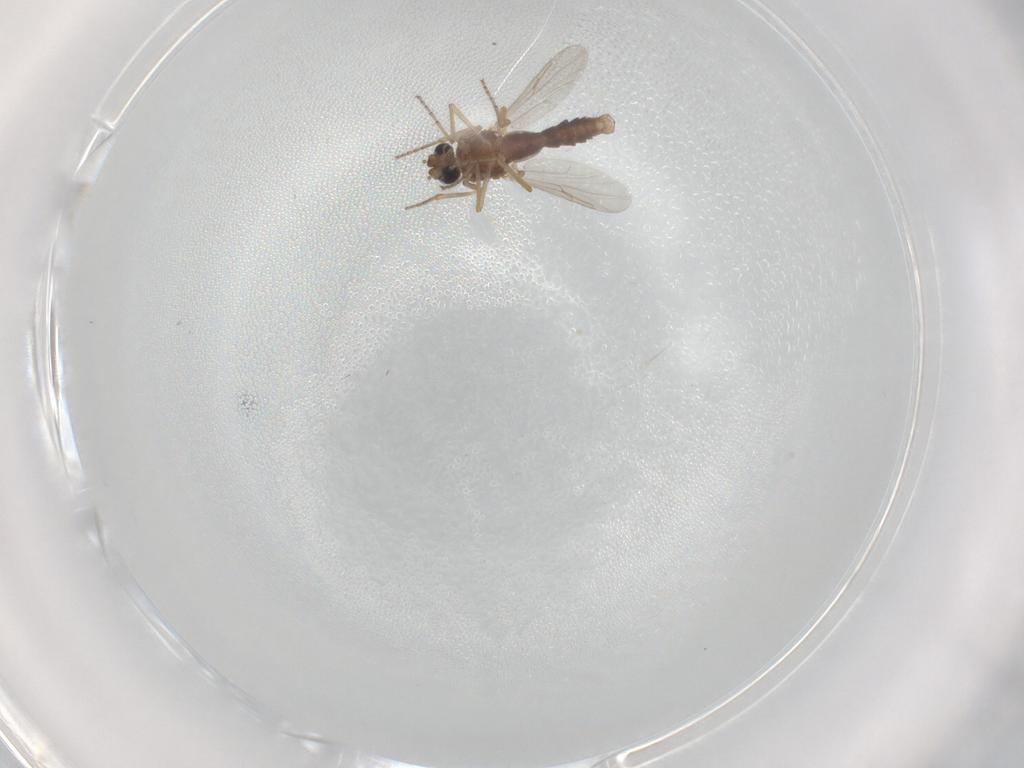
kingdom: Animalia
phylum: Arthropoda
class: Insecta
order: Diptera
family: Ceratopogonidae
